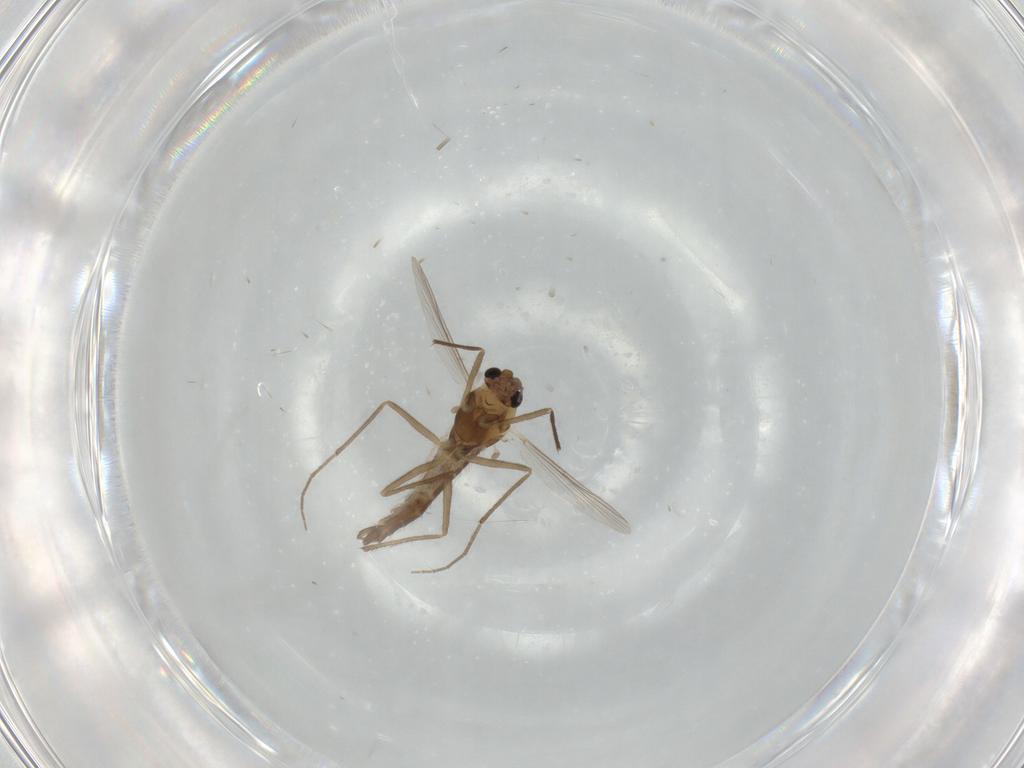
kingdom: Animalia
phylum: Arthropoda
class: Insecta
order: Diptera
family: Chironomidae
